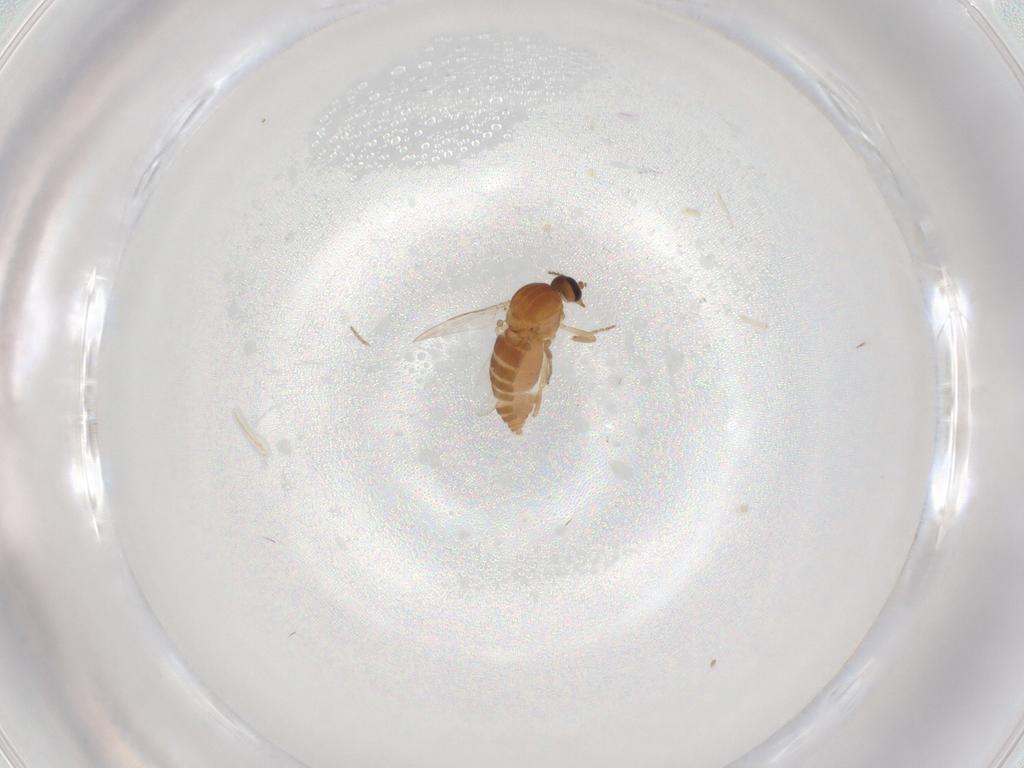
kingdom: Animalia
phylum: Arthropoda
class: Insecta
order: Diptera
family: Ceratopogonidae
